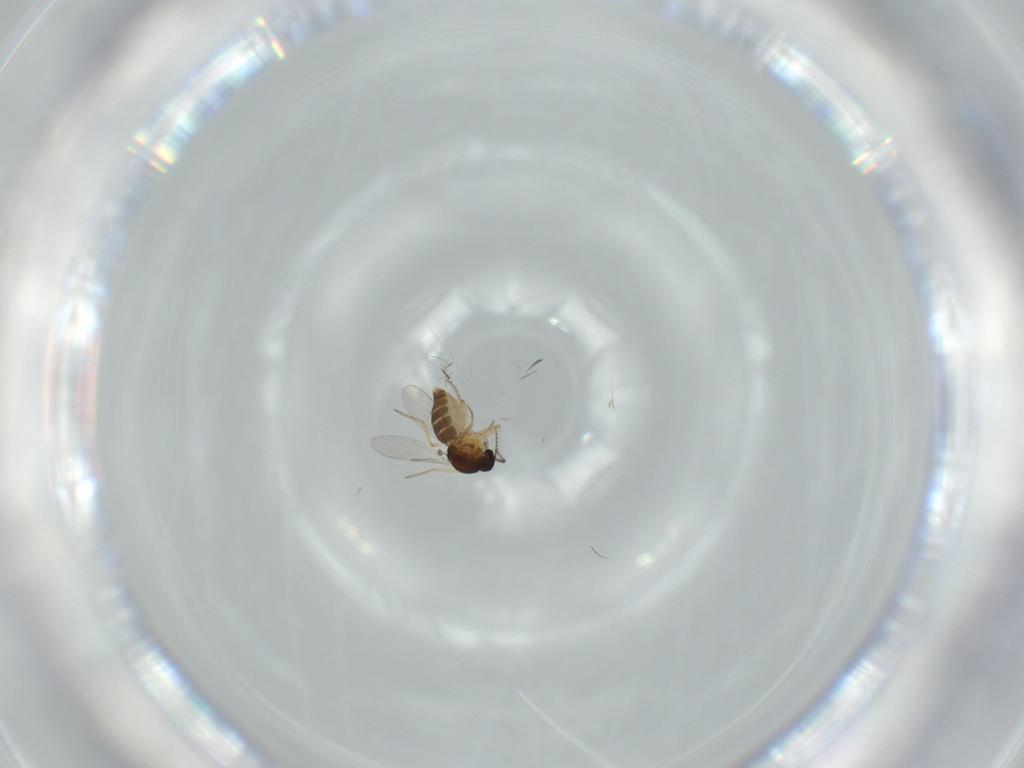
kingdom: Animalia
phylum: Arthropoda
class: Insecta
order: Diptera
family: Ceratopogonidae
